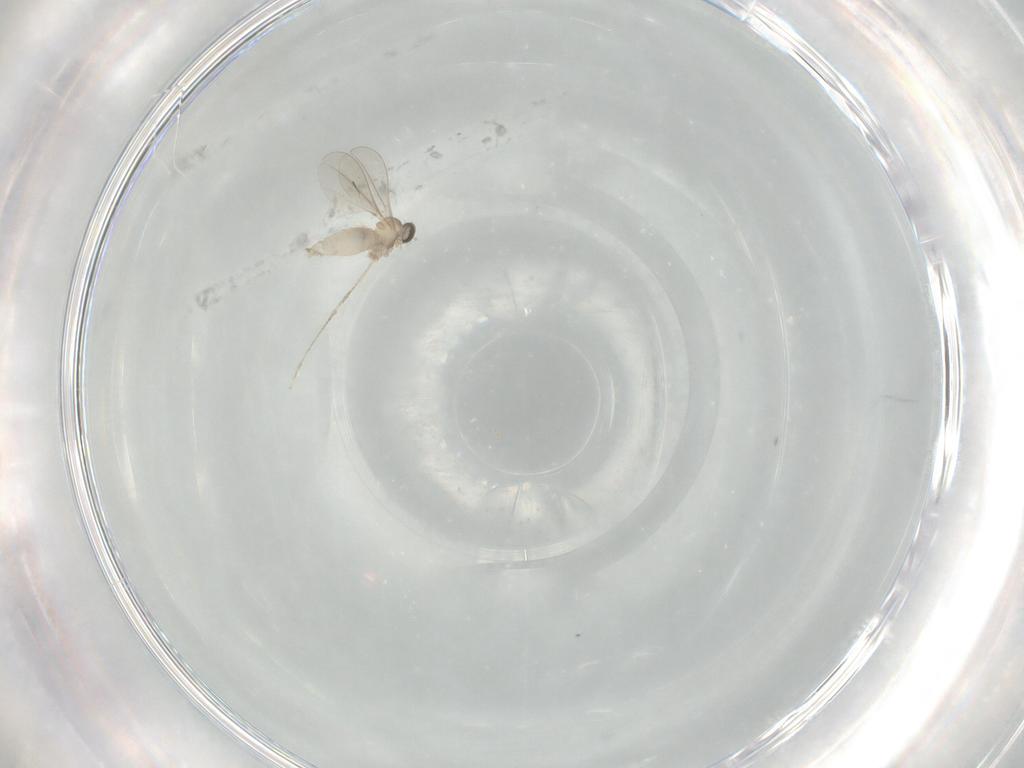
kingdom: Animalia
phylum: Arthropoda
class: Insecta
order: Diptera
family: Cecidomyiidae
